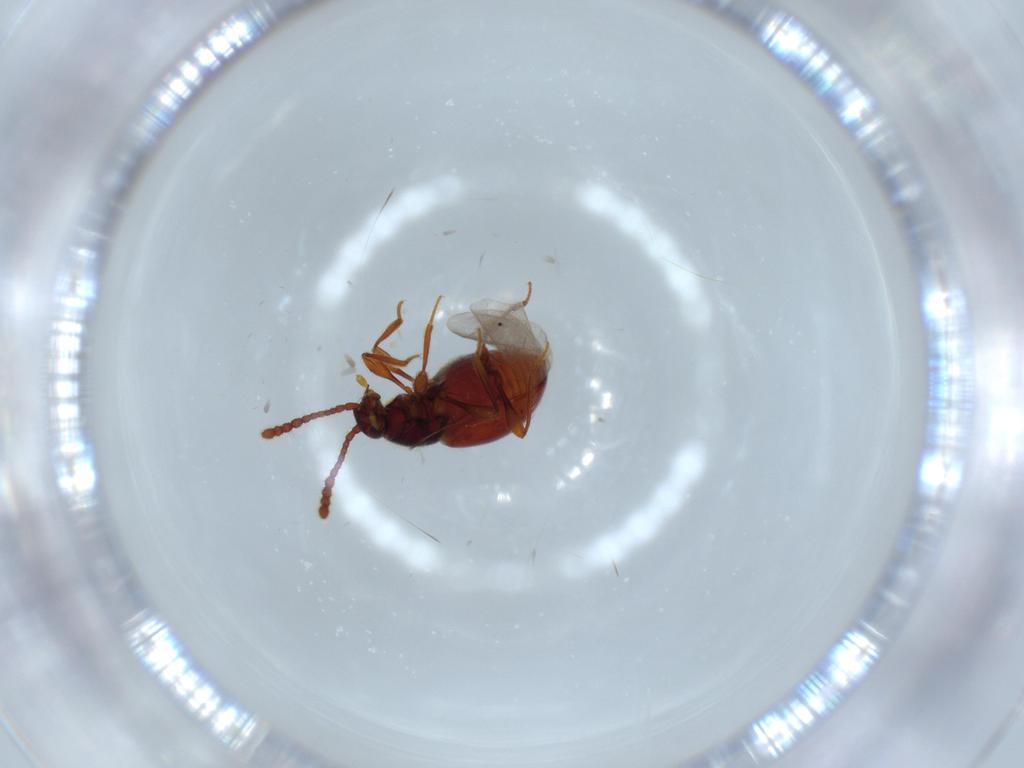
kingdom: Animalia
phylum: Arthropoda
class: Insecta
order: Coleoptera
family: Staphylinidae
